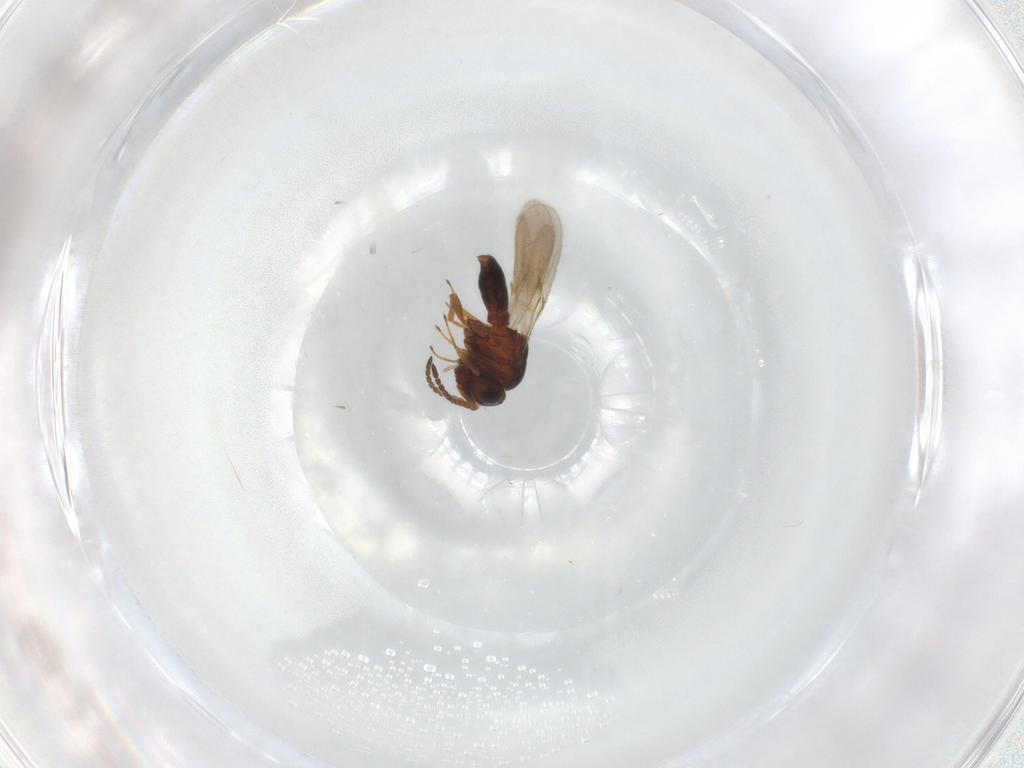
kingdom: Animalia
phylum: Arthropoda
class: Insecta
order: Hymenoptera
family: Scelionidae
